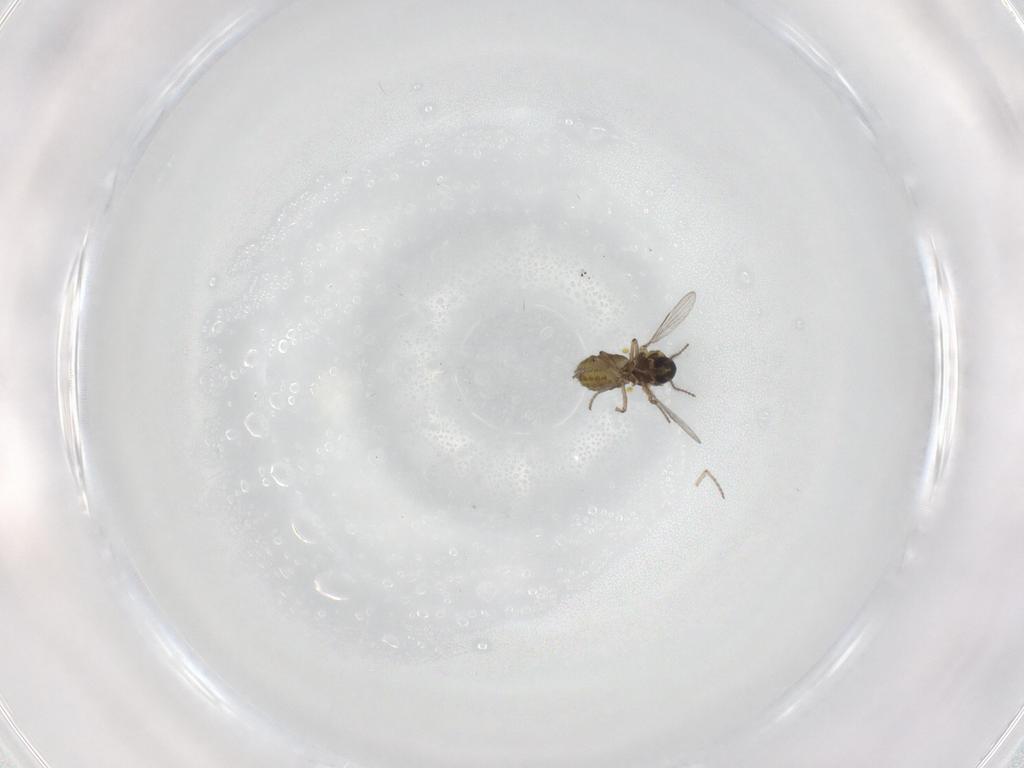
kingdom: Animalia
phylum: Arthropoda
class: Insecta
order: Diptera
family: Ceratopogonidae
